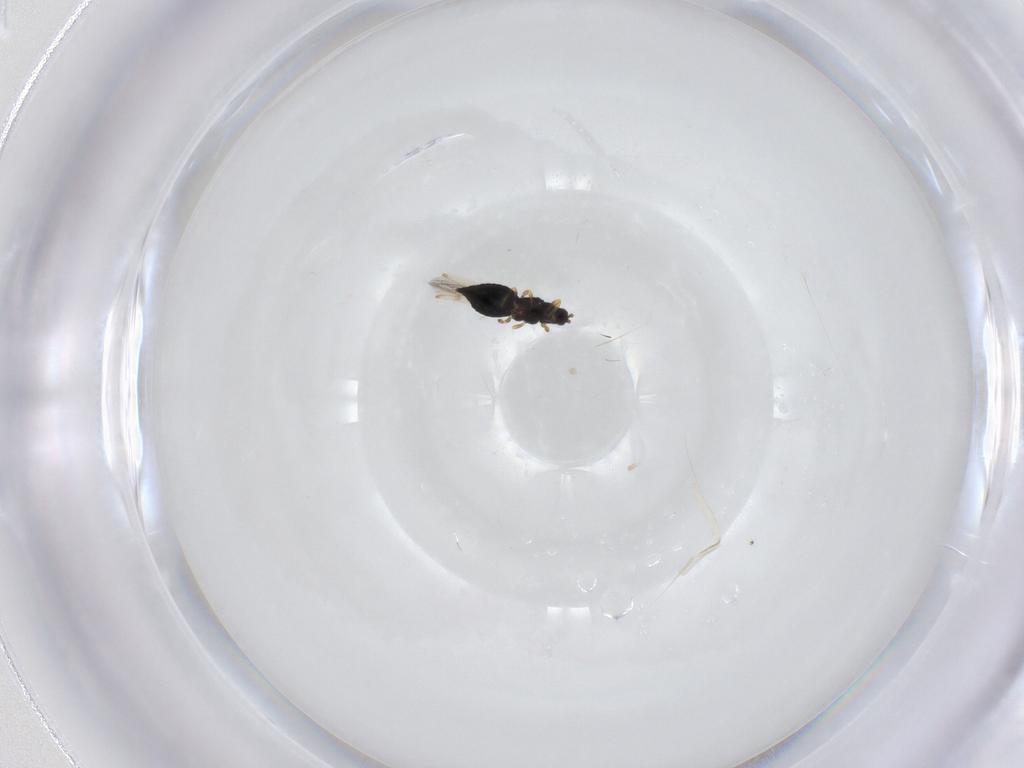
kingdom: Animalia
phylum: Arthropoda
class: Insecta
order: Thysanoptera
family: Thripidae
